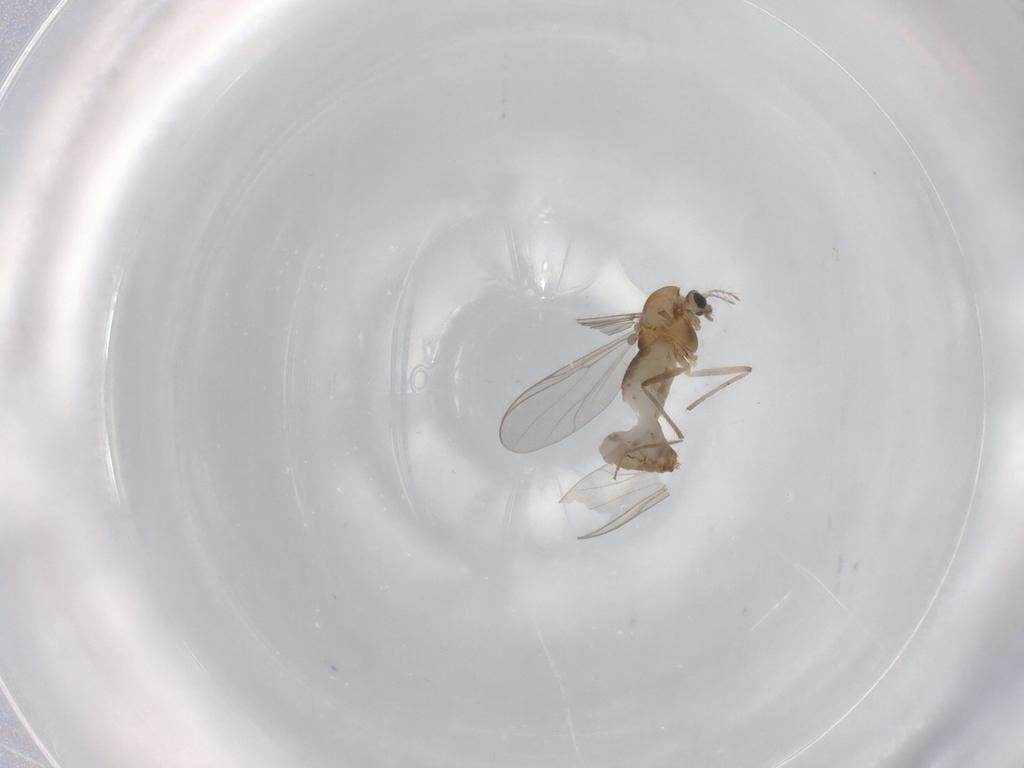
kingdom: Animalia
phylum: Arthropoda
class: Insecta
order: Diptera
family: Chironomidae
